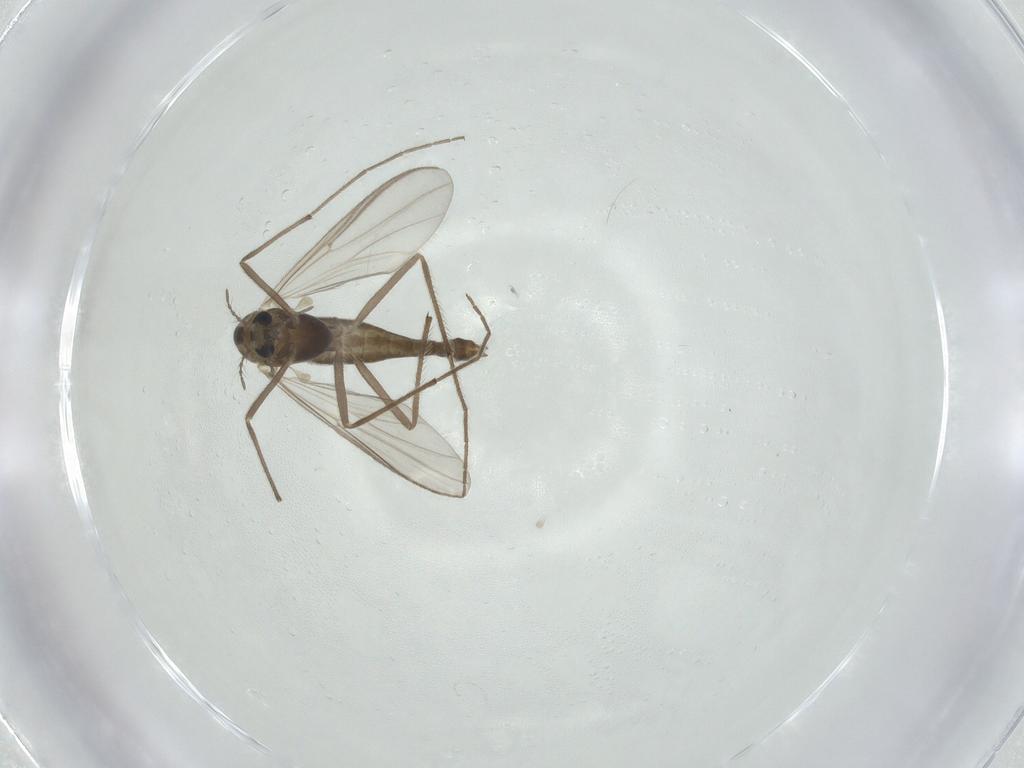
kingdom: Animalia
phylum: Arthropoda
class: Insecta
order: Diptera
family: Chironomidae
